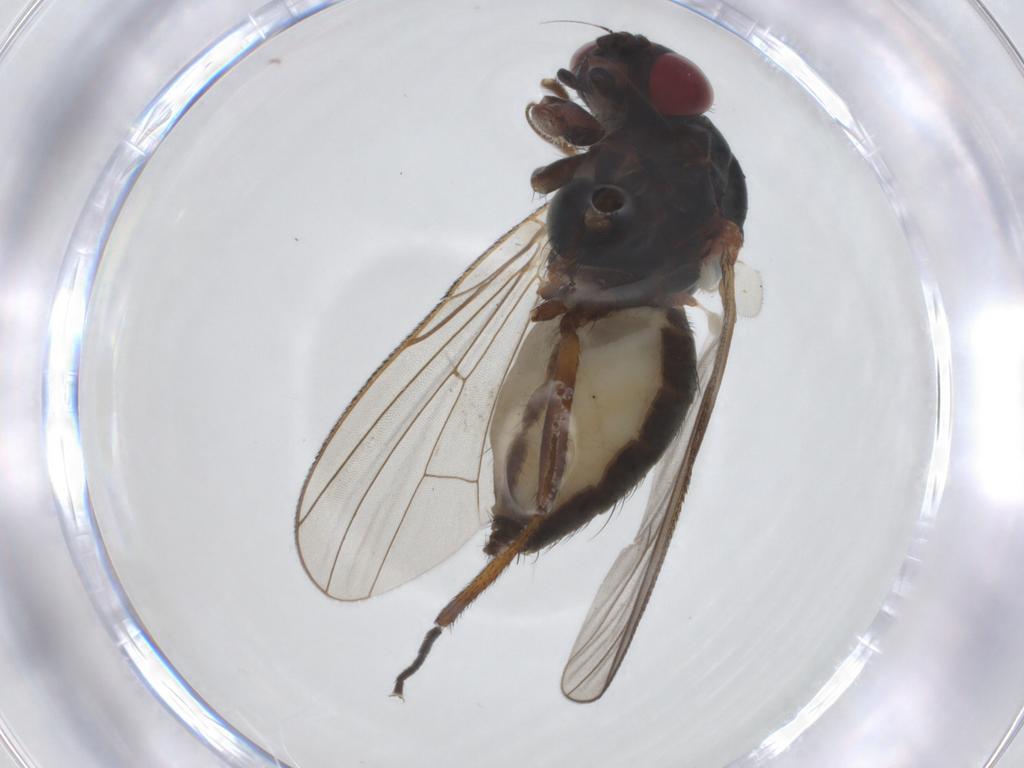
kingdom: Animalia
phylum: Arthropoda
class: Insecta
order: Diptera
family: Anthomyiidae
